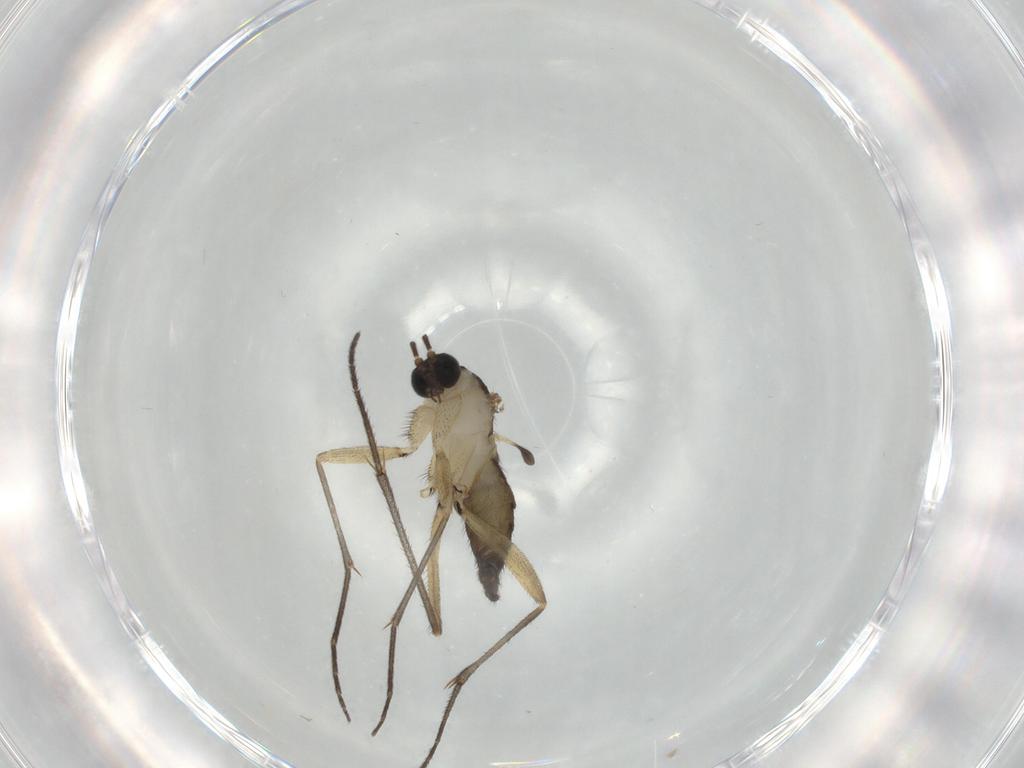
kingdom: Animalia
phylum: Arthropoda
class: Insecta
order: Diptera
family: Sciaridae
